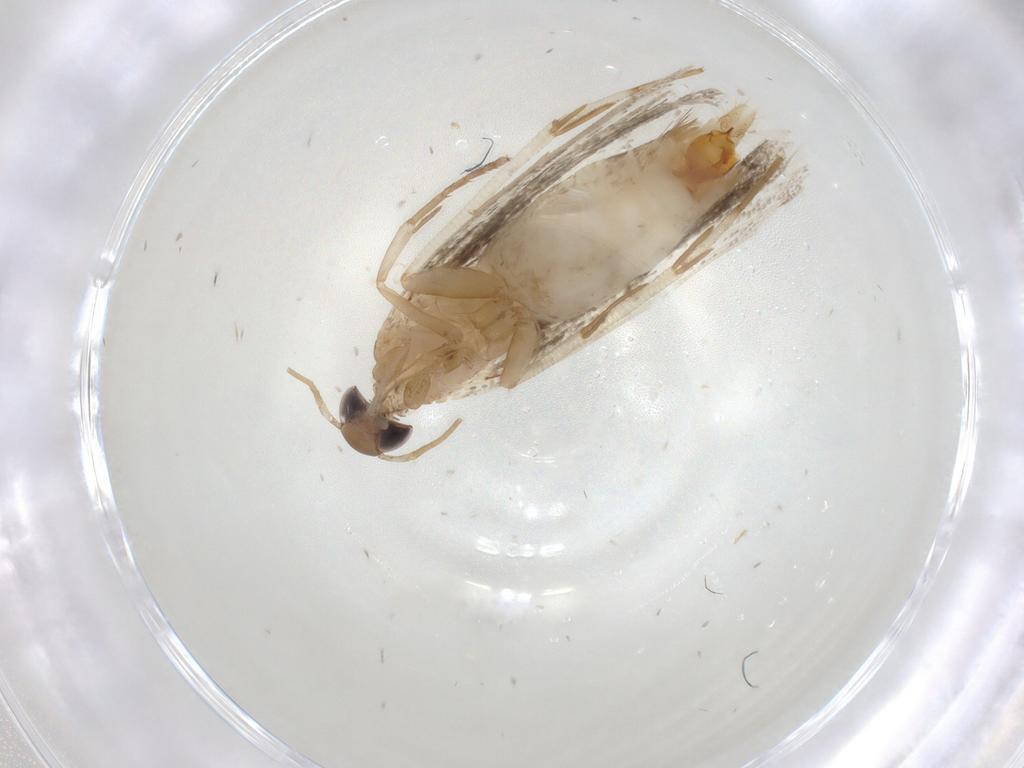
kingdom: Animalia
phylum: Arthropoda
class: Insecta
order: Lepidoptera
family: Gelechiidae
